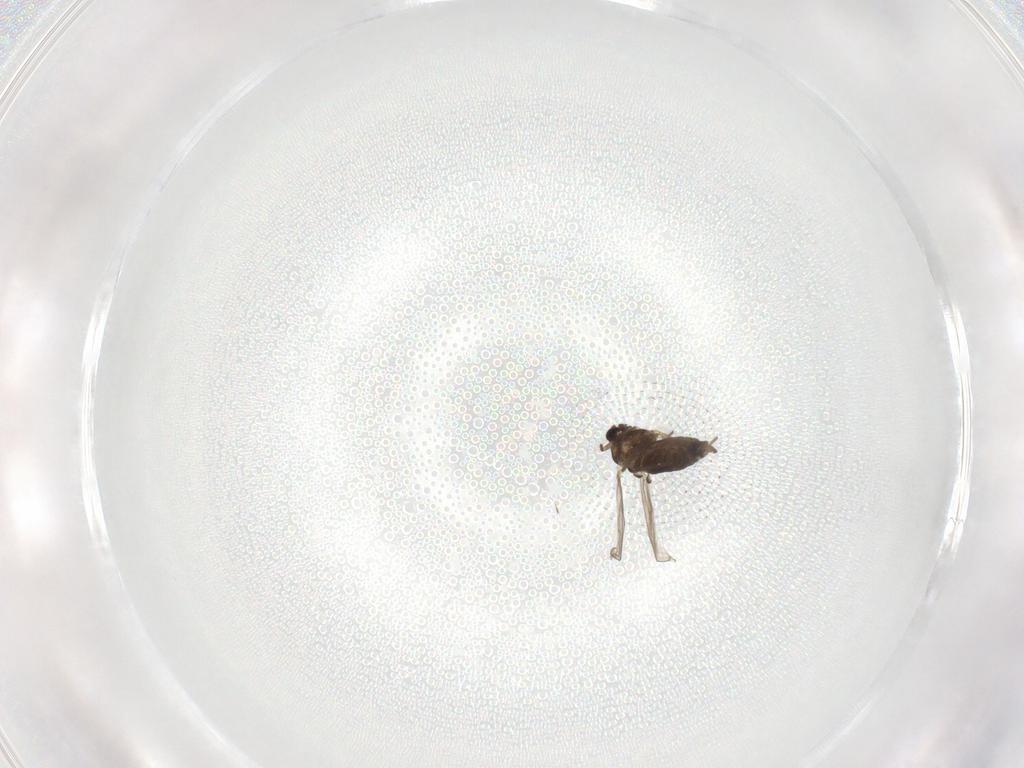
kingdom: Animalia
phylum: Arthropoda
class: Insecta
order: Diptera
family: Chironomidae
